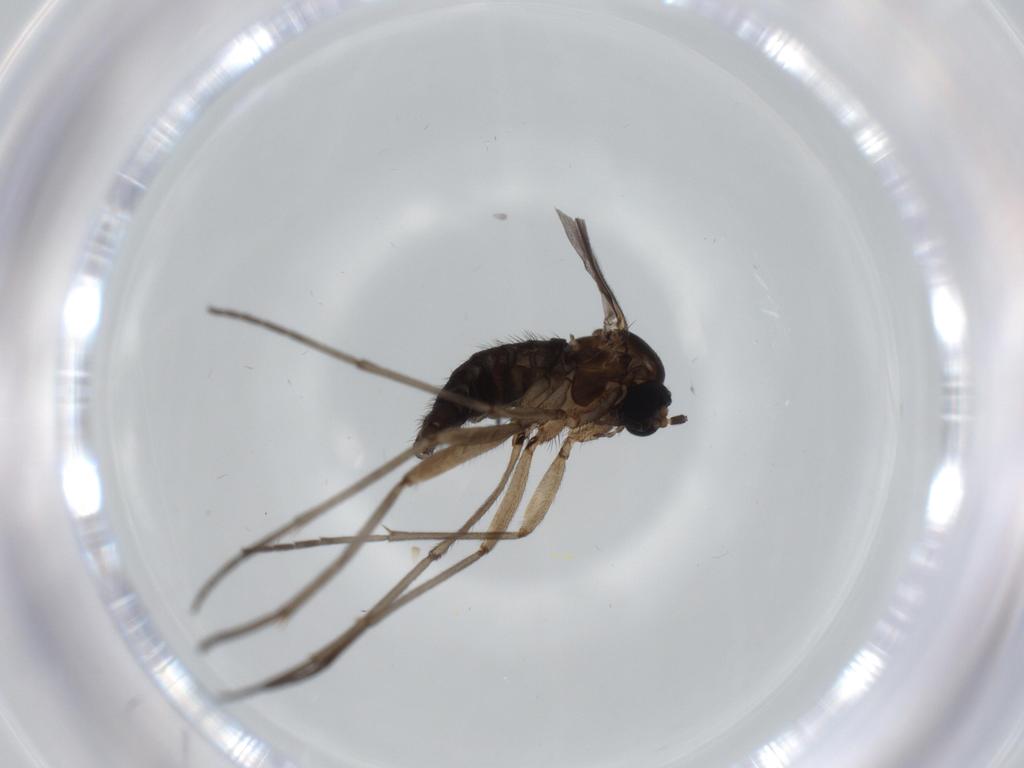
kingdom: Animalia
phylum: Arthropoda
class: Insecta
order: Diptera
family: Sciaridae
